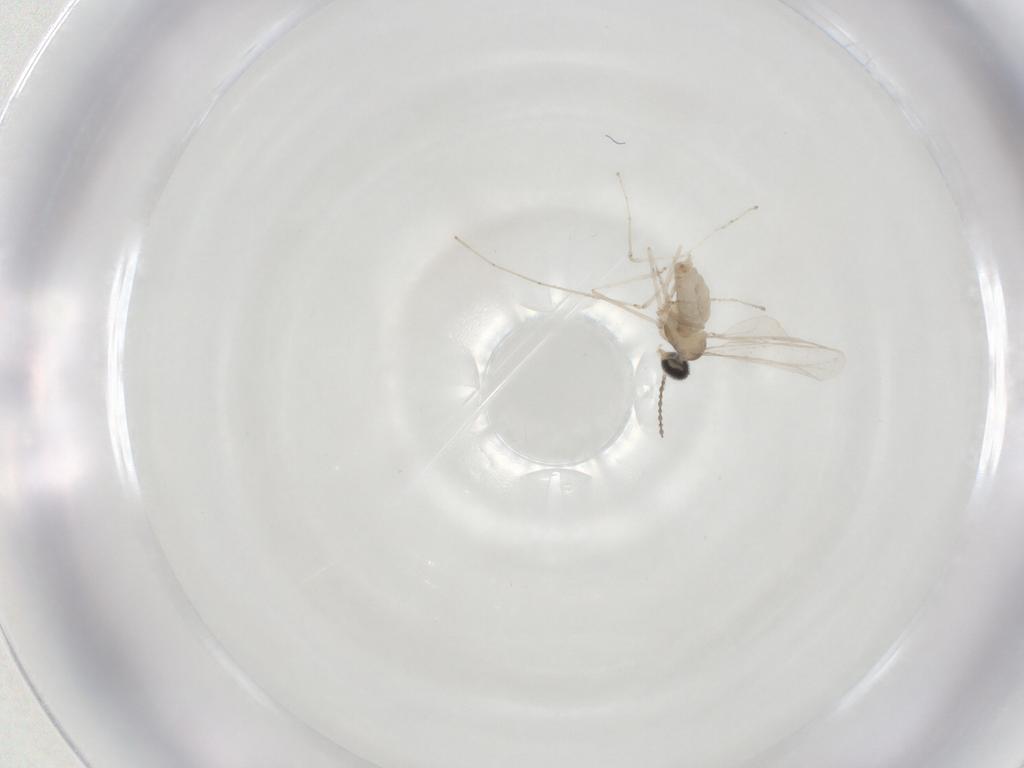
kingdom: Animalia
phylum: Arthropoda
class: Insecta
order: Diptera
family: Cecidomyiidae
